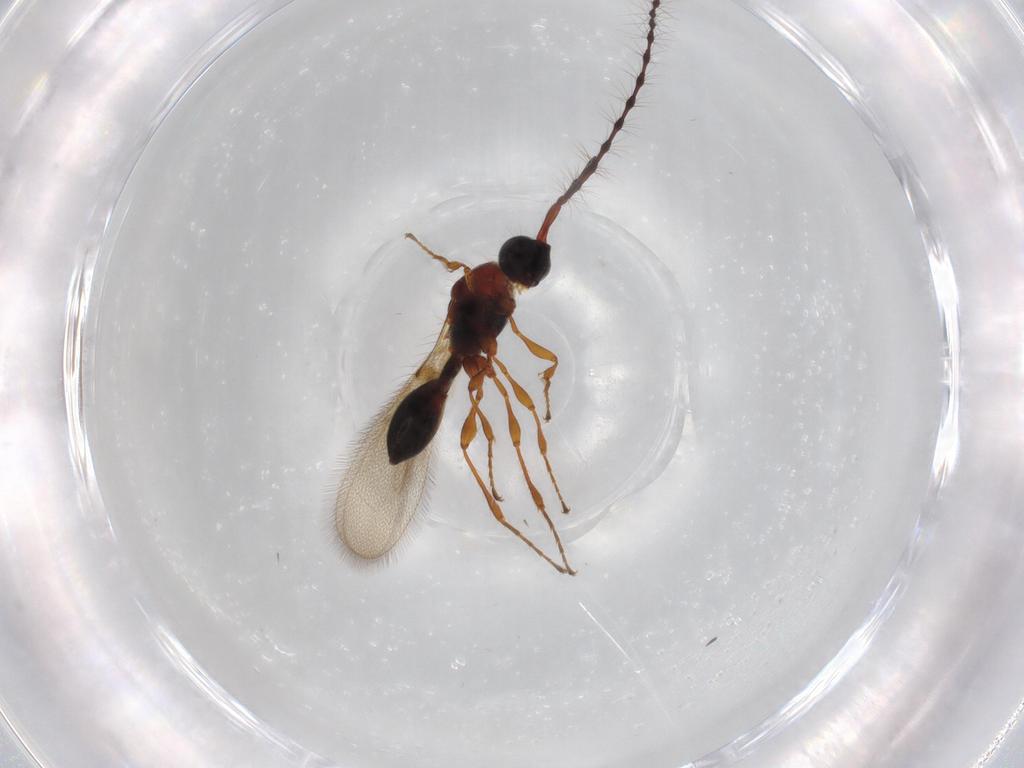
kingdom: Animalia
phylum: Arthropoda
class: Insecta
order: Hymenoptera
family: Diapriidae
